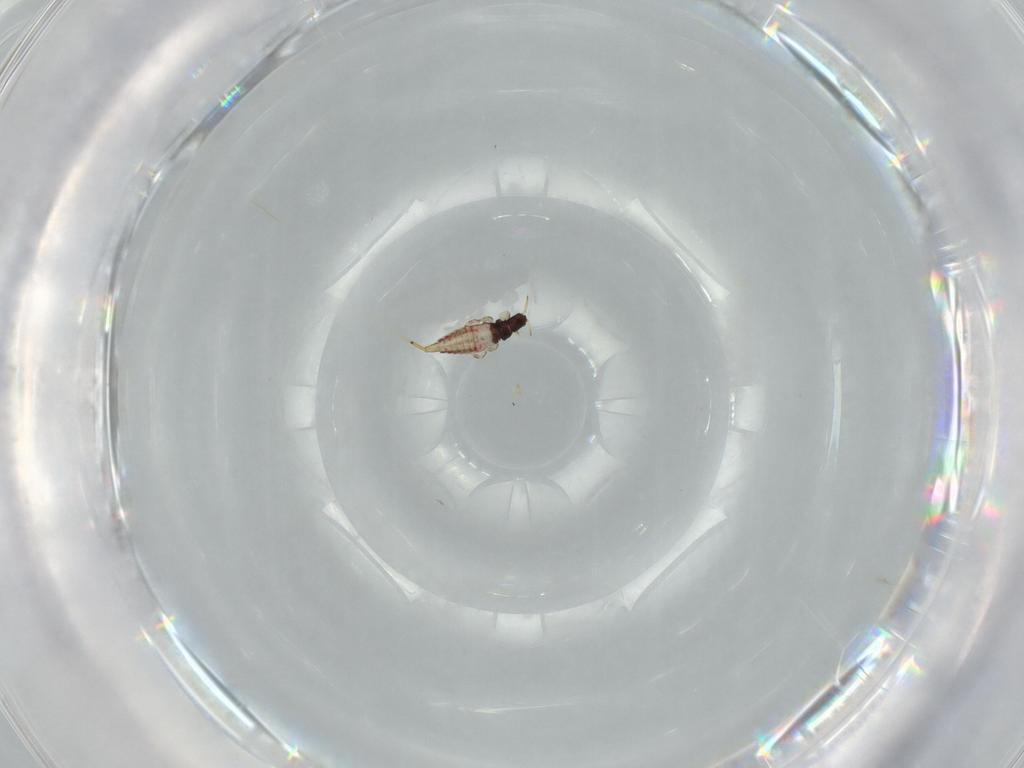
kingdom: Animalia
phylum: Arthropoda
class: Insecta
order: Thysanoptera
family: Phlaeothripidae
